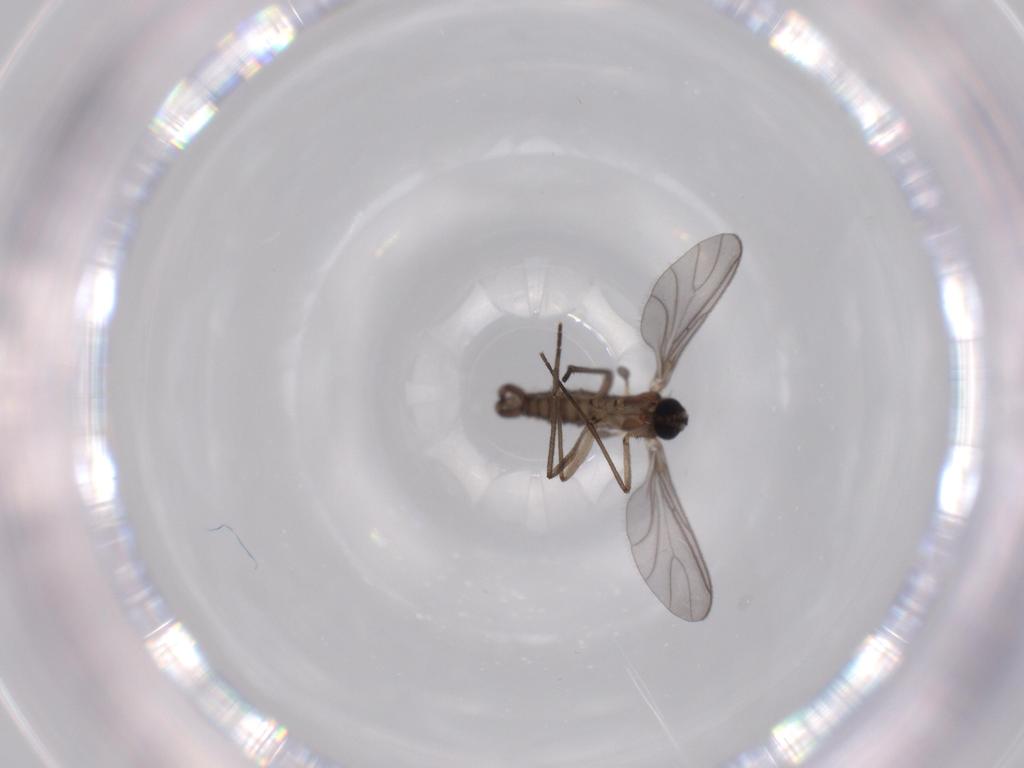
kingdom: Animalia
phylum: Arthropoda
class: Insecta
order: Diptera
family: Sciaridae
